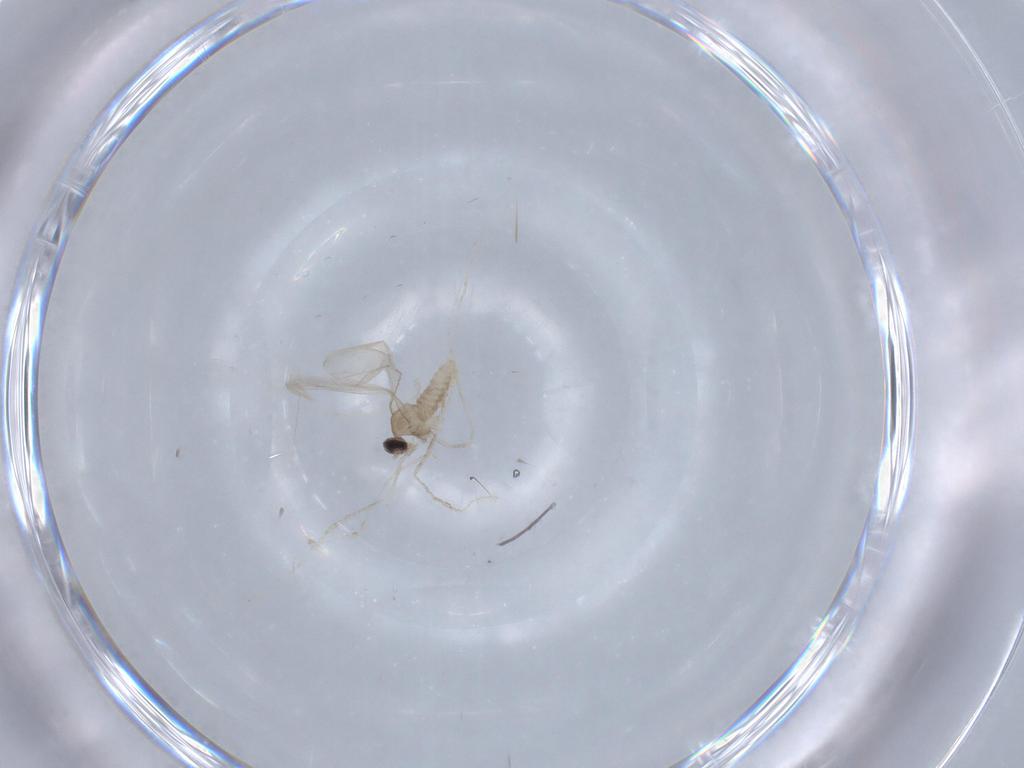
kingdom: Animalia
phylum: Arthropoda
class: Insecta
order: Diptera
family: Cecidomyiidae
